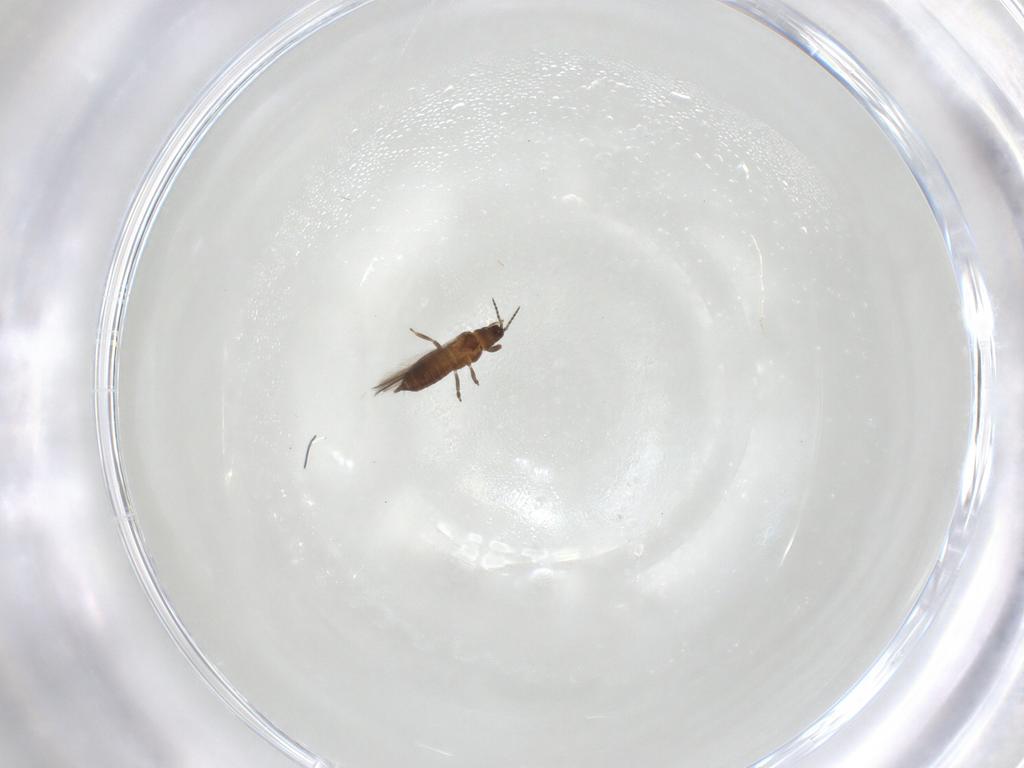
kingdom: Animalia
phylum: Arthropoda
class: Insecta
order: Thysanoptera
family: Heterothripidae
